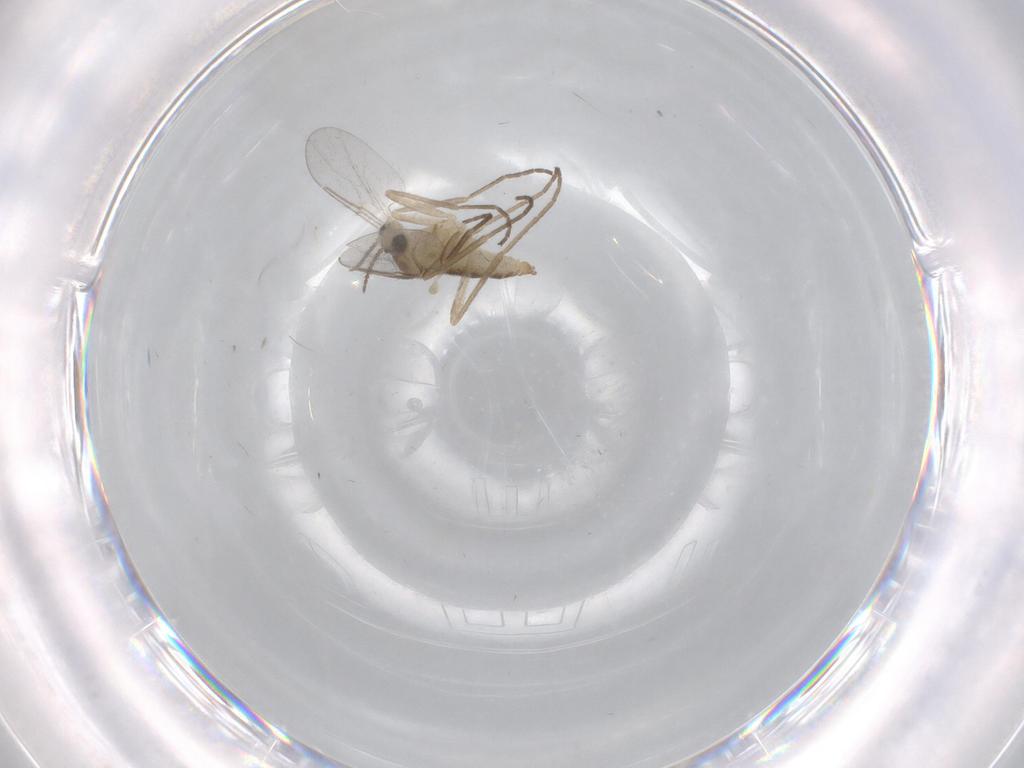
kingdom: Animalia
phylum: Arthropoda
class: Insecta
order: Diptera
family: Cecidomyiidae
